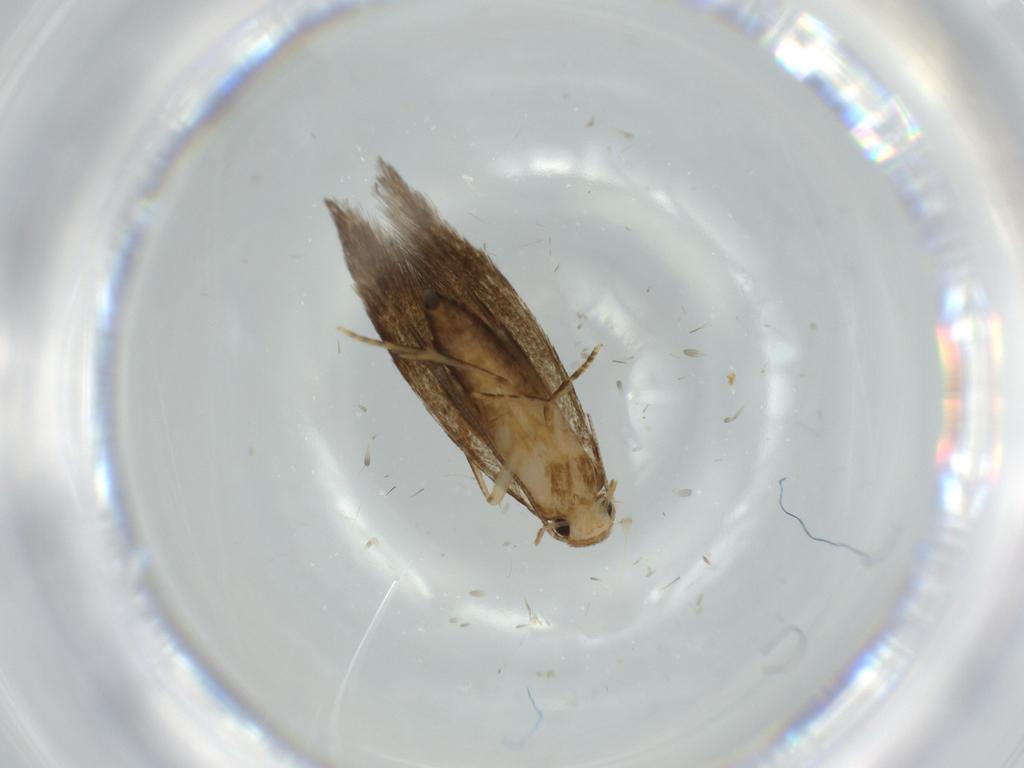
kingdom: Animalia
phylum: Arthropoda
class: Insecta
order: Lepidoptera
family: Tineidae
